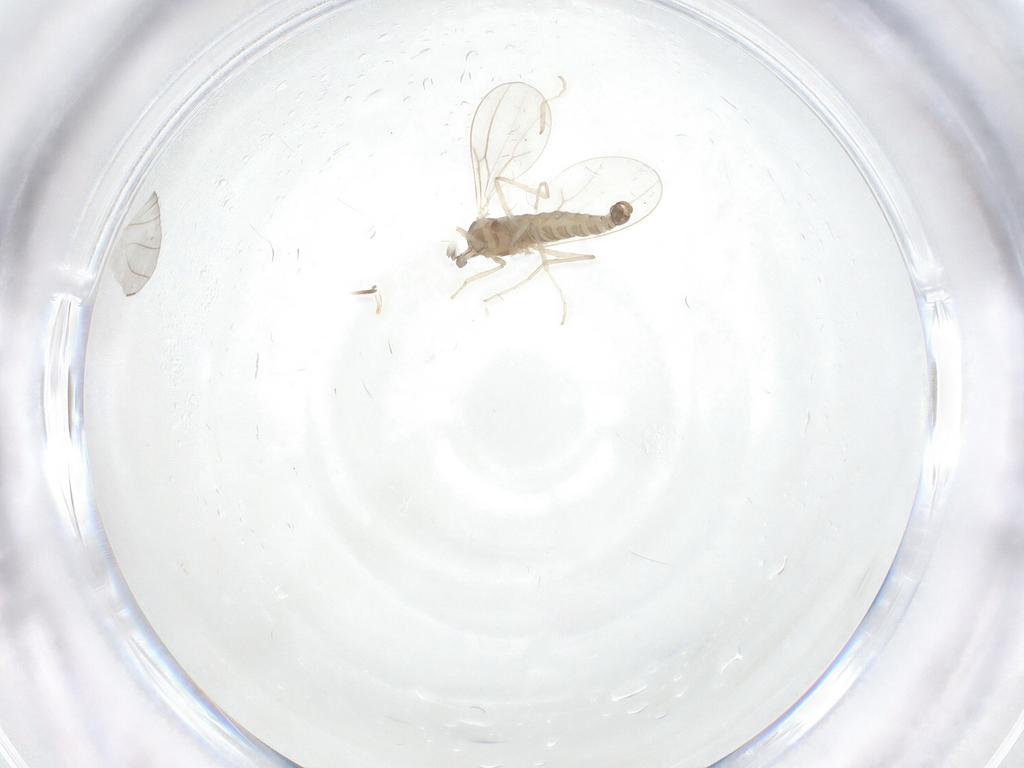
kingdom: Animalia
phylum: Arthropoda
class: Insecta
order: Diptera
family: Cecidomyiidae
